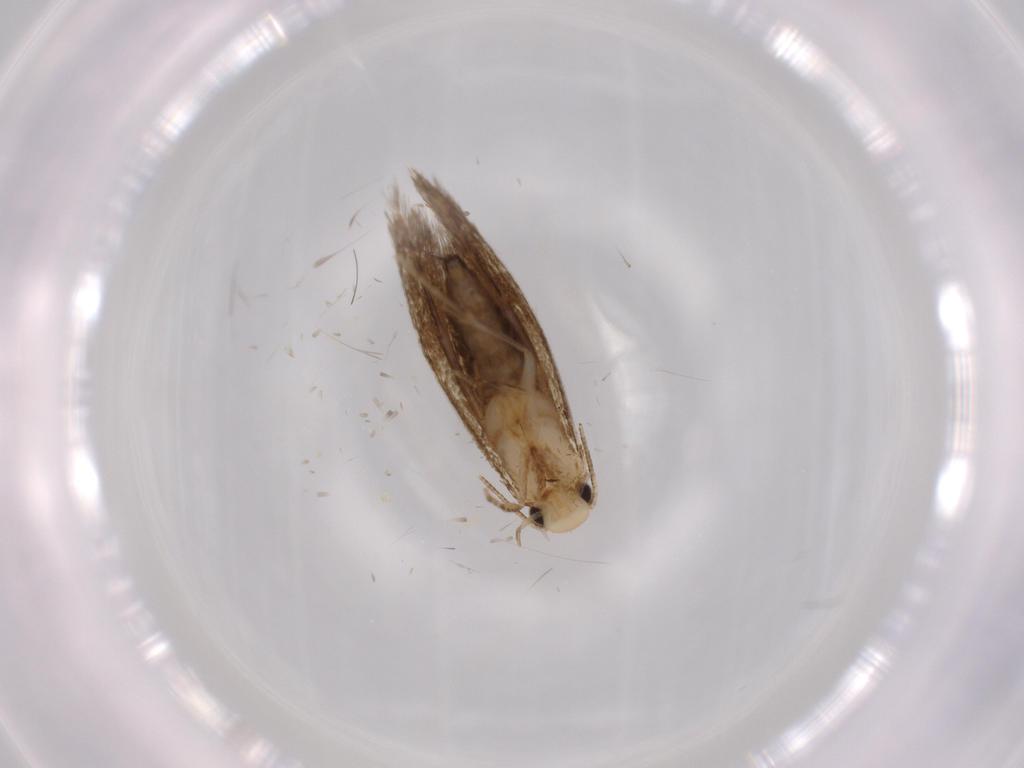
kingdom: Animalia
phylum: Arthropoda
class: Insecta
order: Lepidoptera
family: Tineidae
